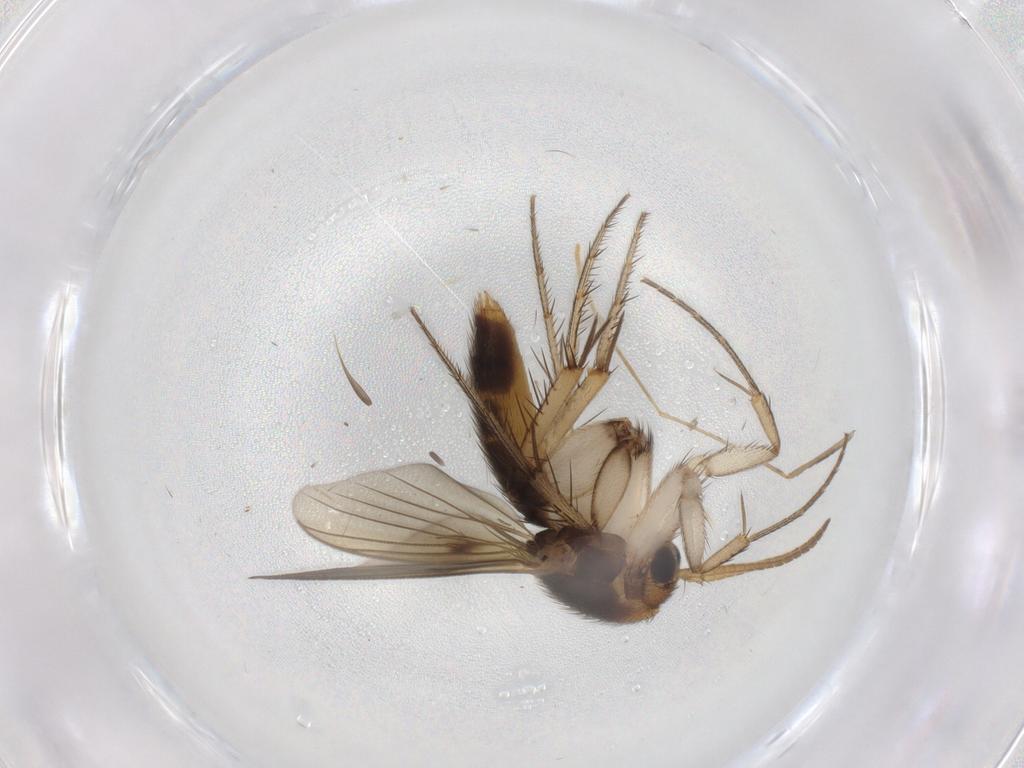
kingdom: Animalia
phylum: Arthropoda
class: Insecta
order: Diptera
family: Mycetophilidae
